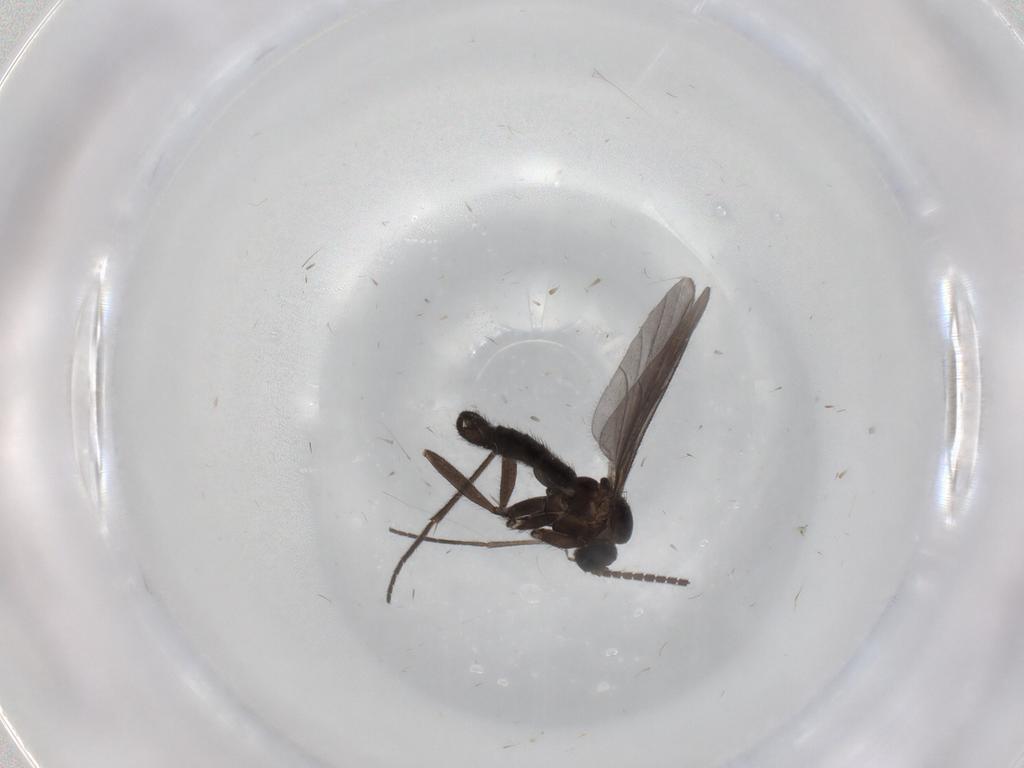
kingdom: Animalia
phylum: Arthropoda
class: Insecta
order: Diptera
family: Sciaridae
